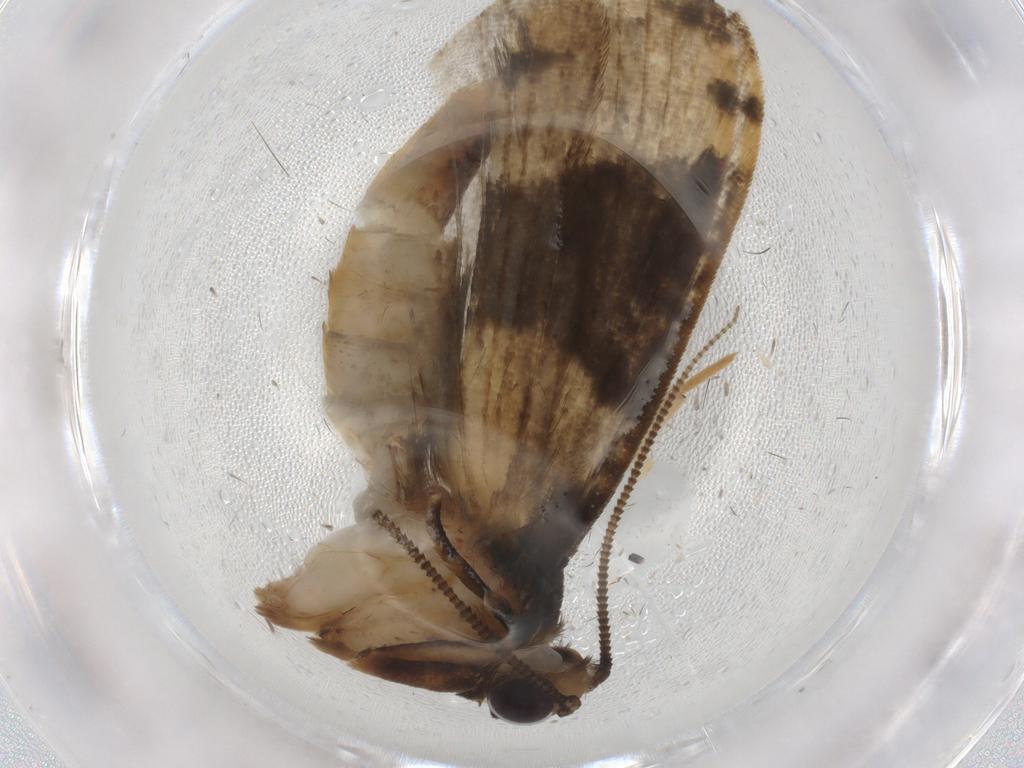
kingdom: Animalia
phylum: Arthropoda
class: Insecta
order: Lepidoptera
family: Tineidae
